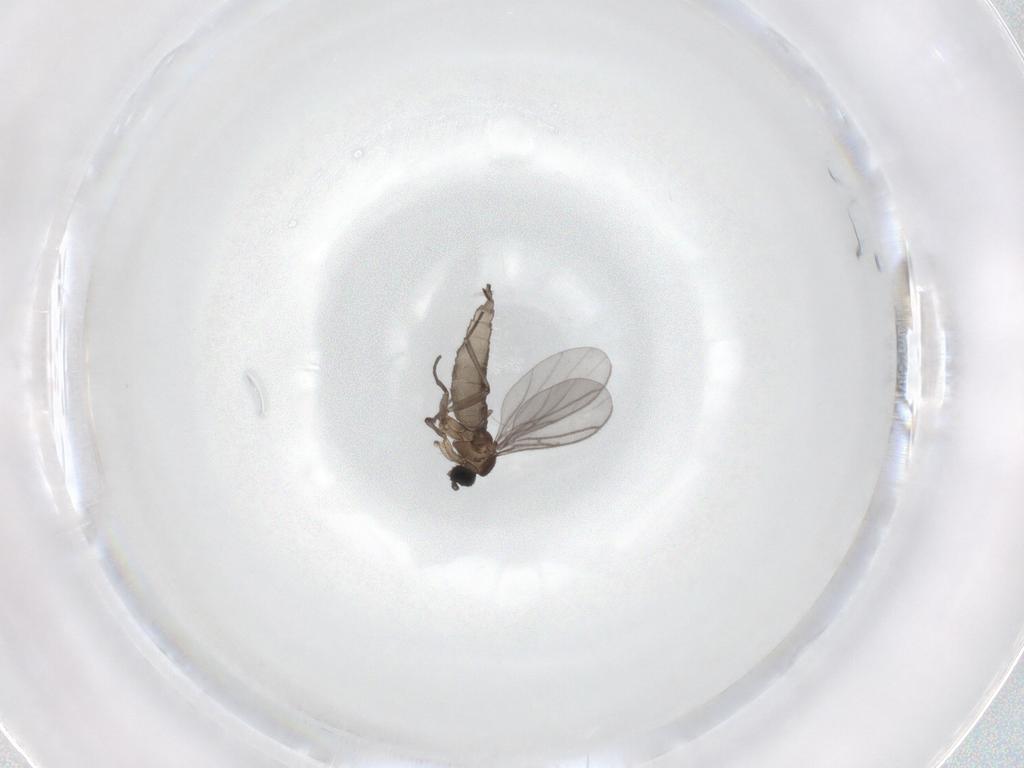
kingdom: Animalia
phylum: Arthropoda
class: Insecta
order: Diptera
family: Sciaridae
